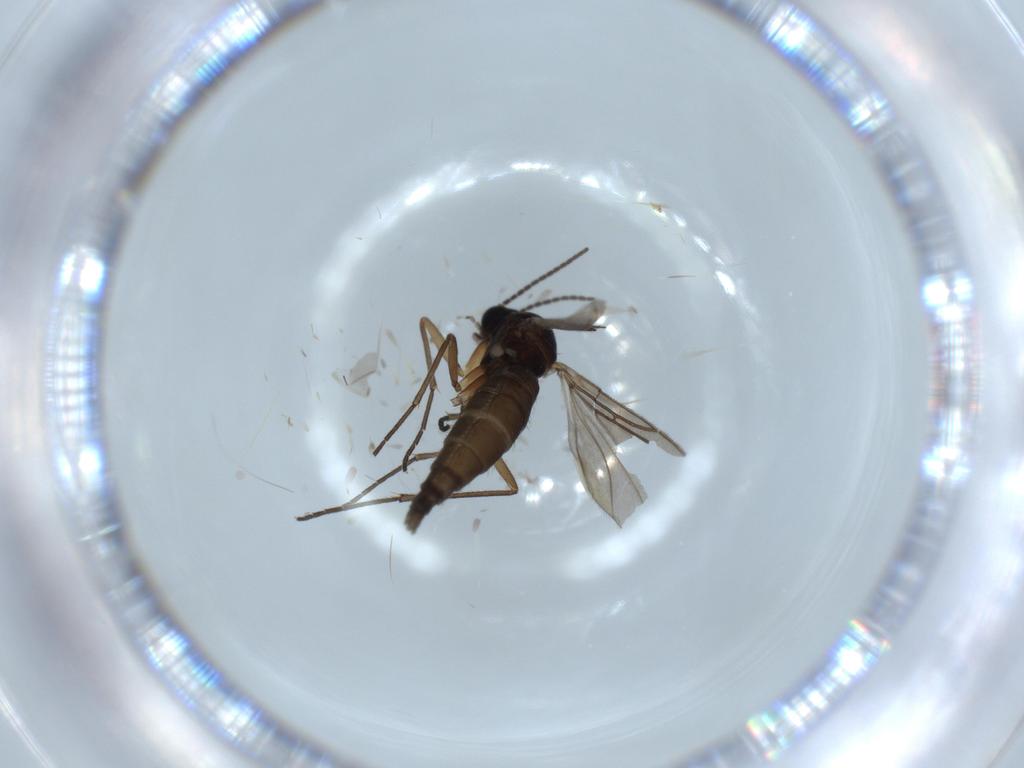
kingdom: Animalia
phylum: Arthropoda
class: Insecta
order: Diptera
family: Sciaridae
